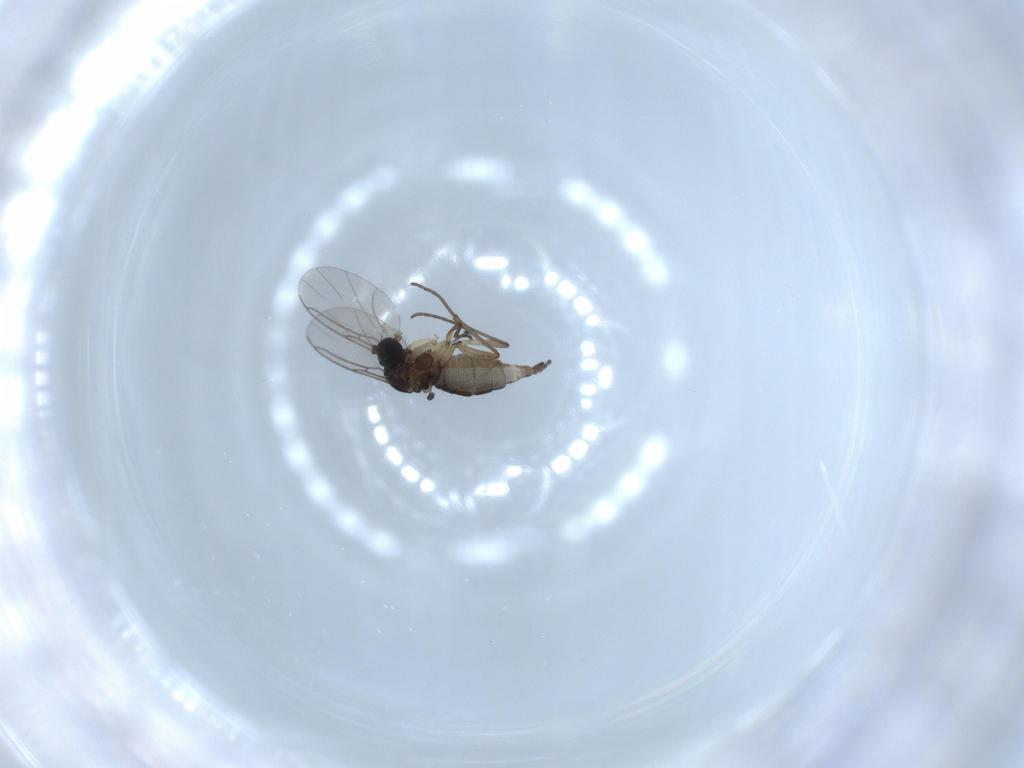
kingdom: Animalia
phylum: Arthropoda
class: Insecta
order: Diptera
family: Sciaridae
